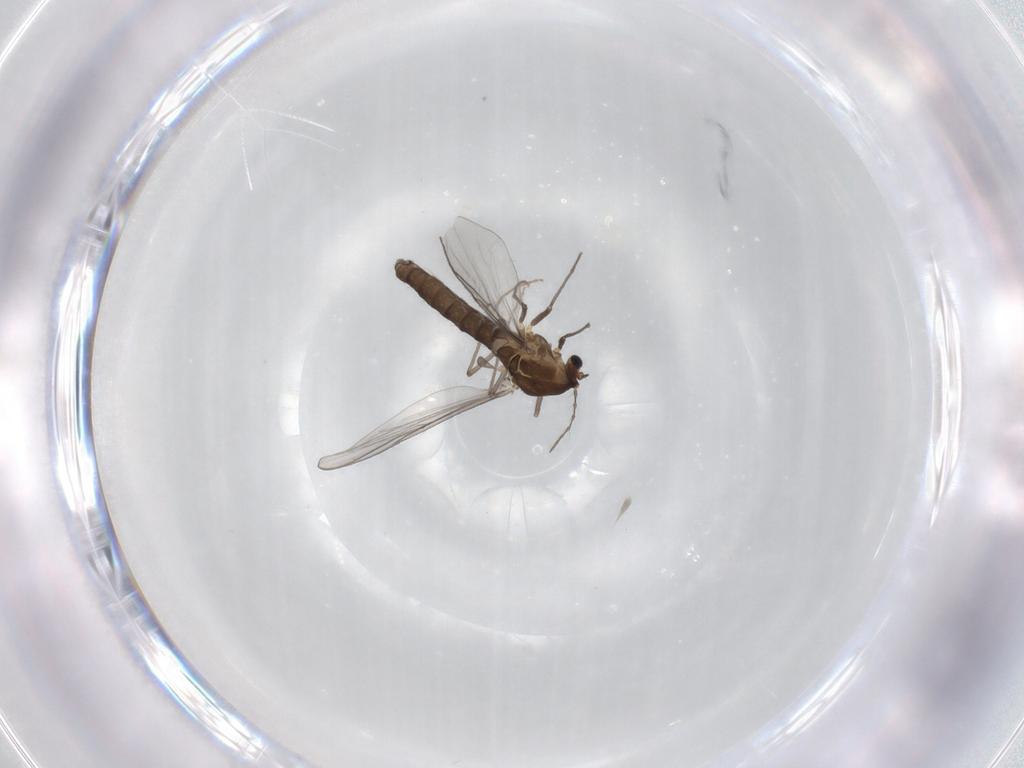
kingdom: Animalia
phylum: Arthropoda
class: Insecta
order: Diptera
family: Chironomidae
